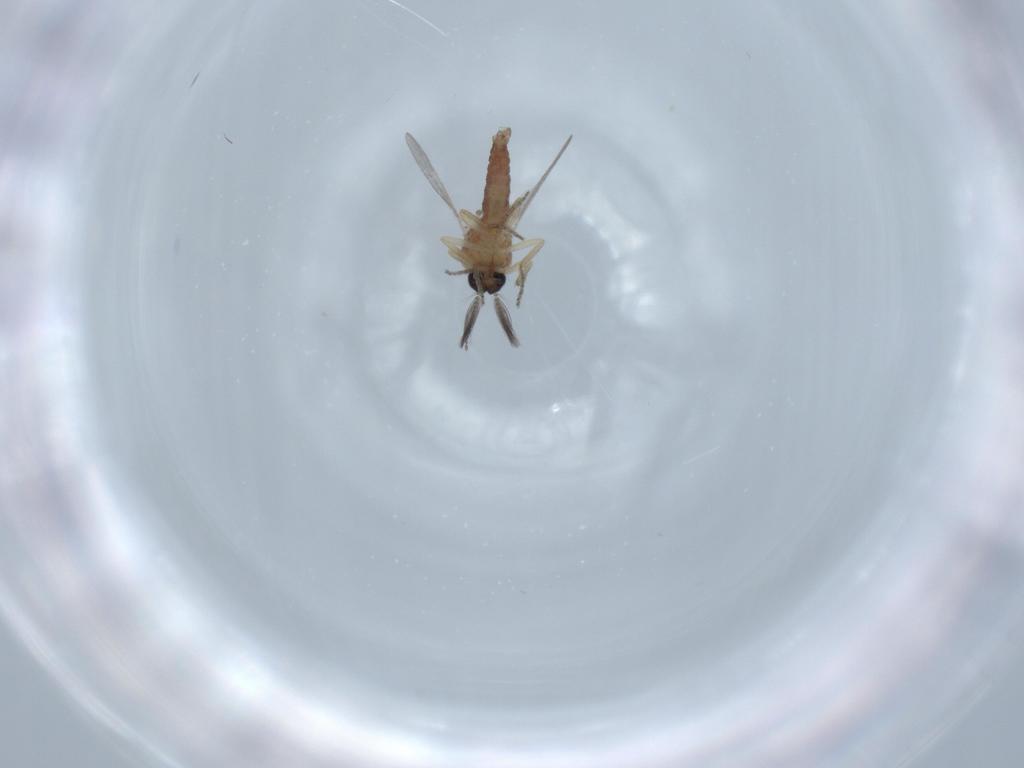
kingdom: Animalia
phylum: Arthropoda
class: Insecta
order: Diptera
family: Ceratopogonidae
